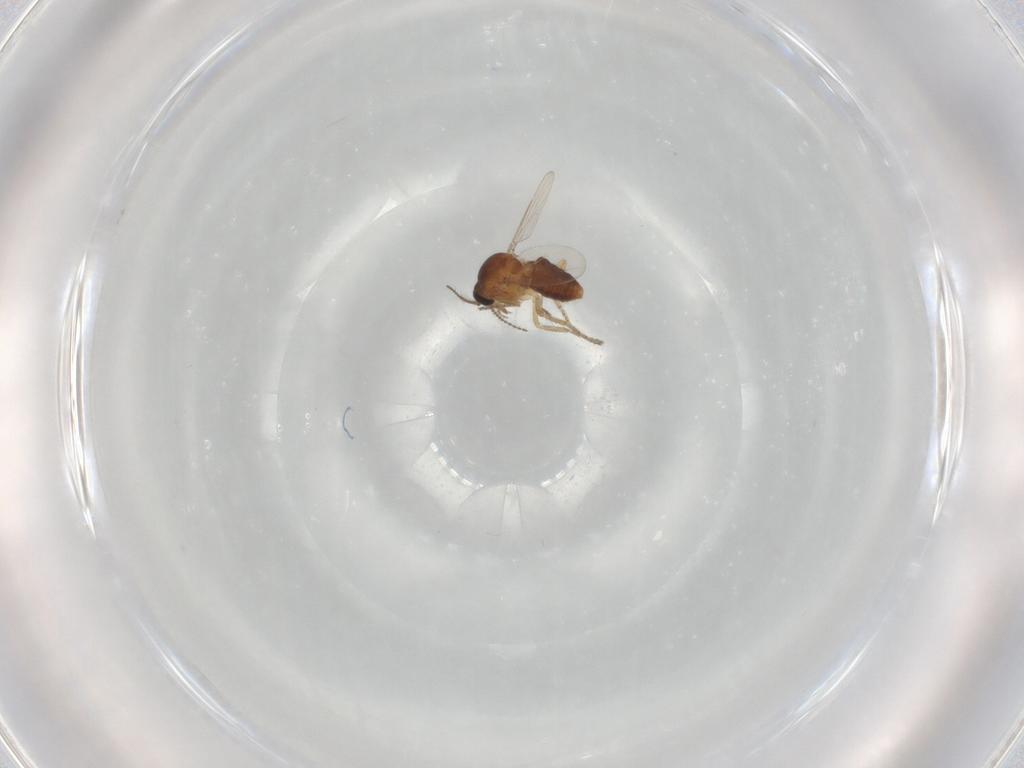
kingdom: Animalia
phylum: Arthropoda
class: Insecta
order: Diptera
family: Ceratopogonidae
